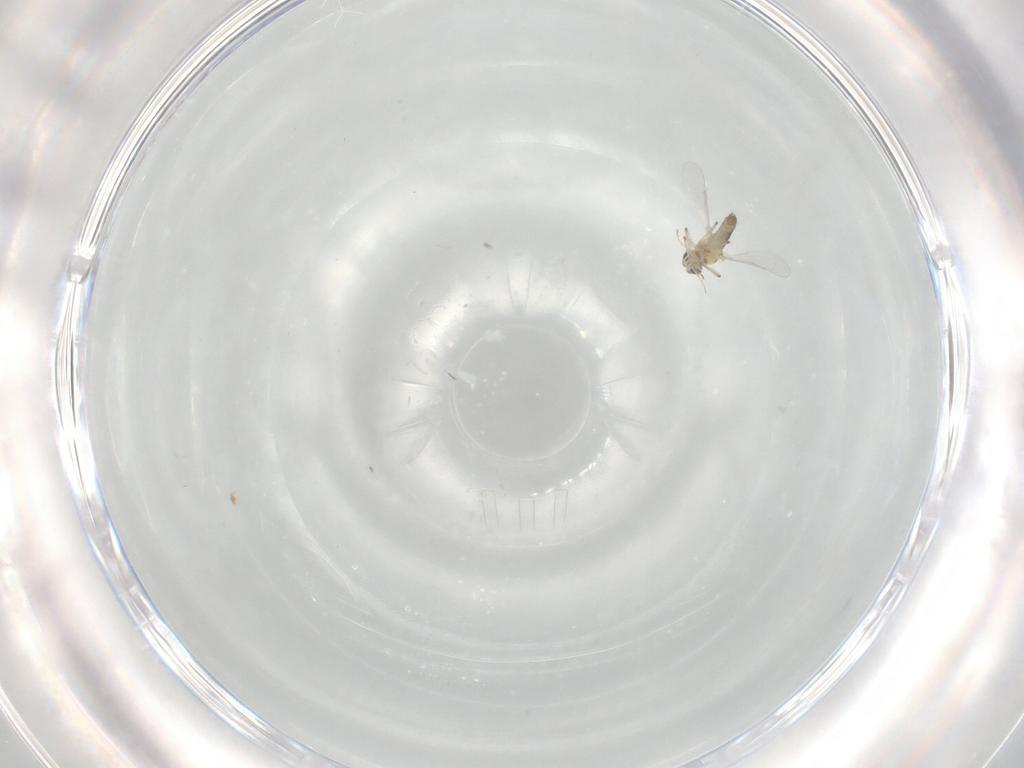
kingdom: Animalia
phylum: Arthropoda
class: Insecta
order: Diptera
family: Chironomidae
